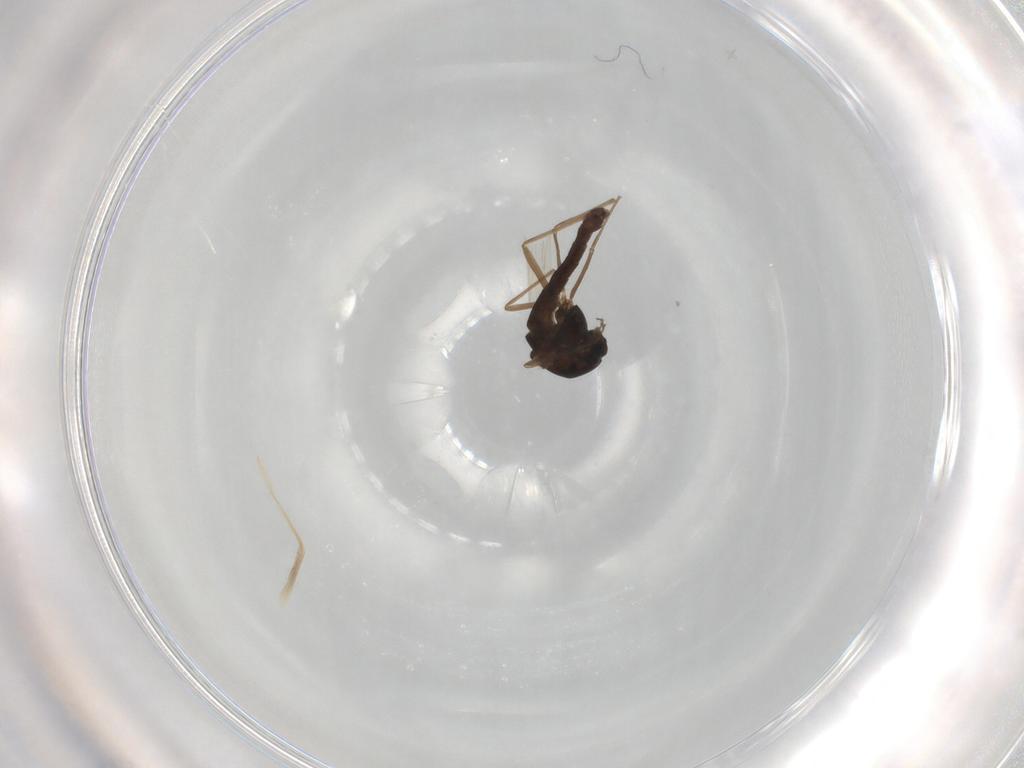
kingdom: Animalia
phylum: Arthropoda
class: Insecta
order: Diptera
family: Chironomidae
